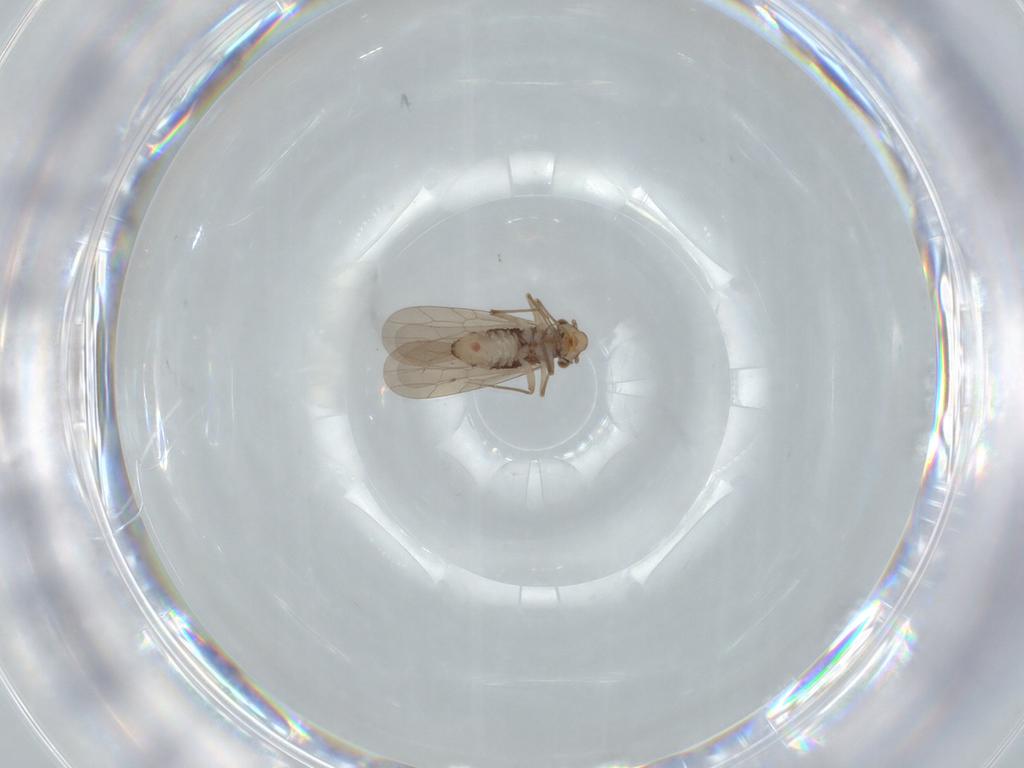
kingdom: Animalia
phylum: Arthropoda
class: Insecta
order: Psocodea
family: Lepidopsocidae
